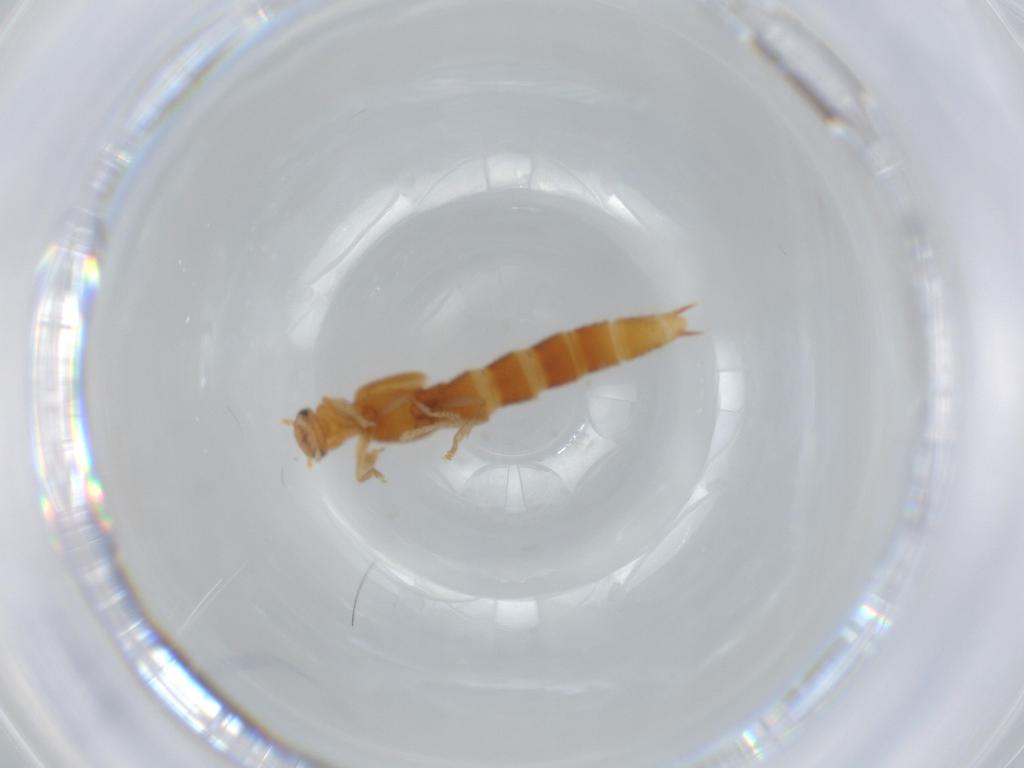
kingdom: Animalia
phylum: Arthropoda
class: Insecta
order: Coleoptera
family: Staphylinidae
